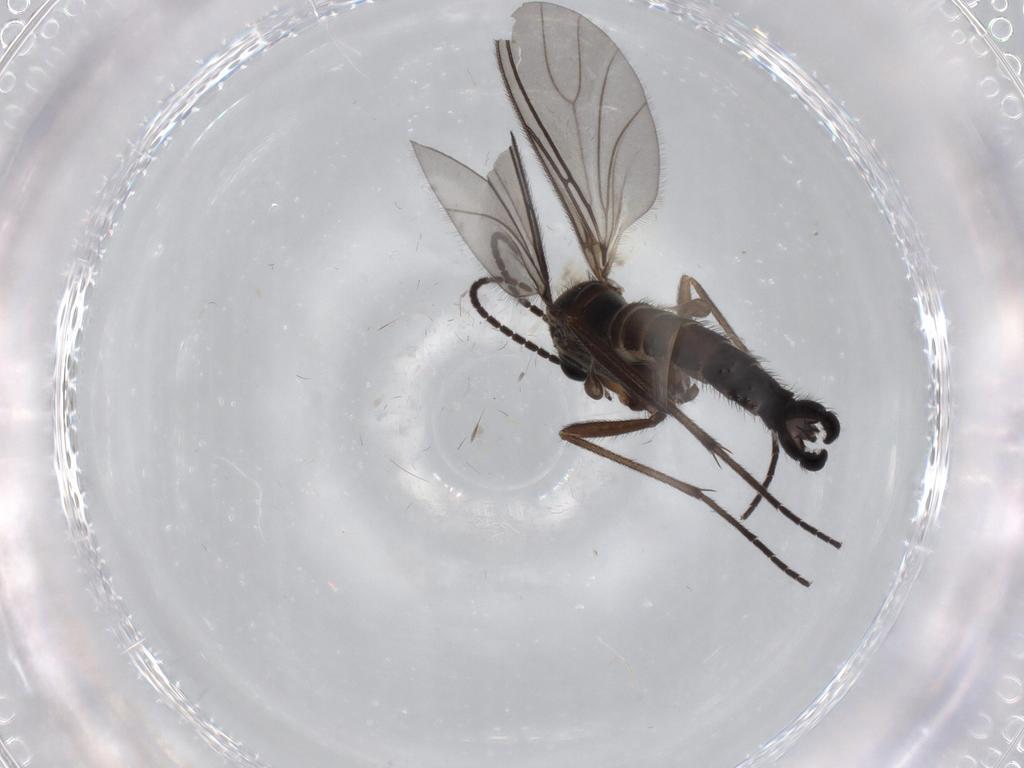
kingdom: Animalia
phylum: Arthropoda
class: Insecta
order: Diptera
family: Sciaridae
